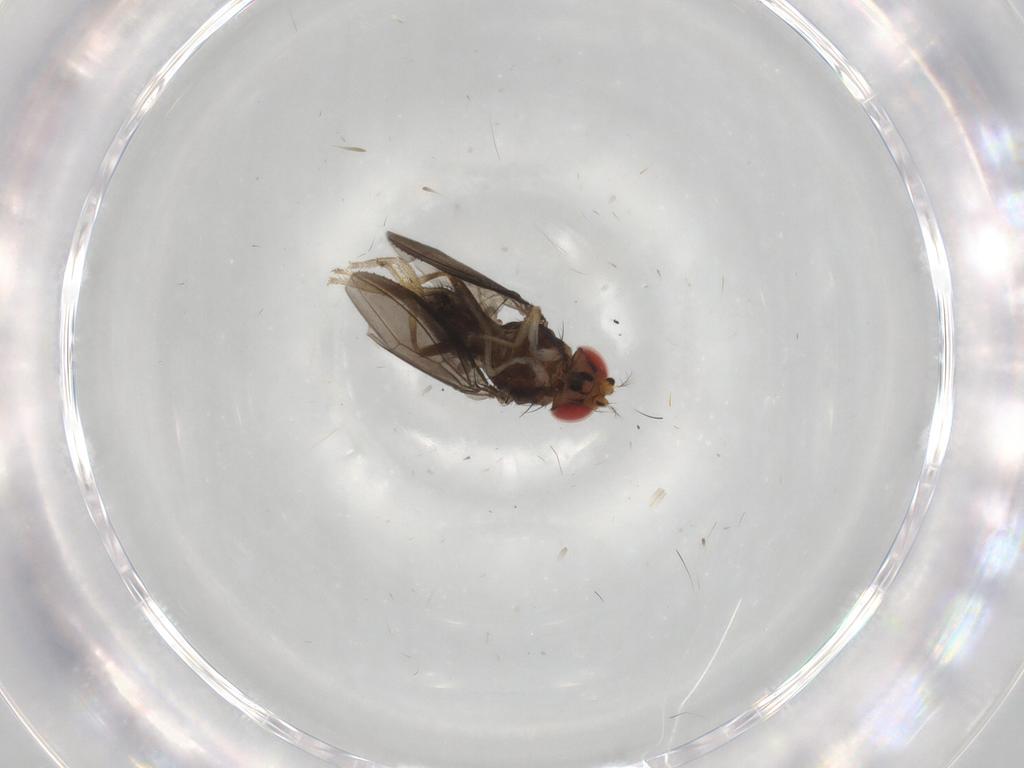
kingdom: Animalia
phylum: Arthropoda
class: Insecta
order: Diptera
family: Drosophilidae
